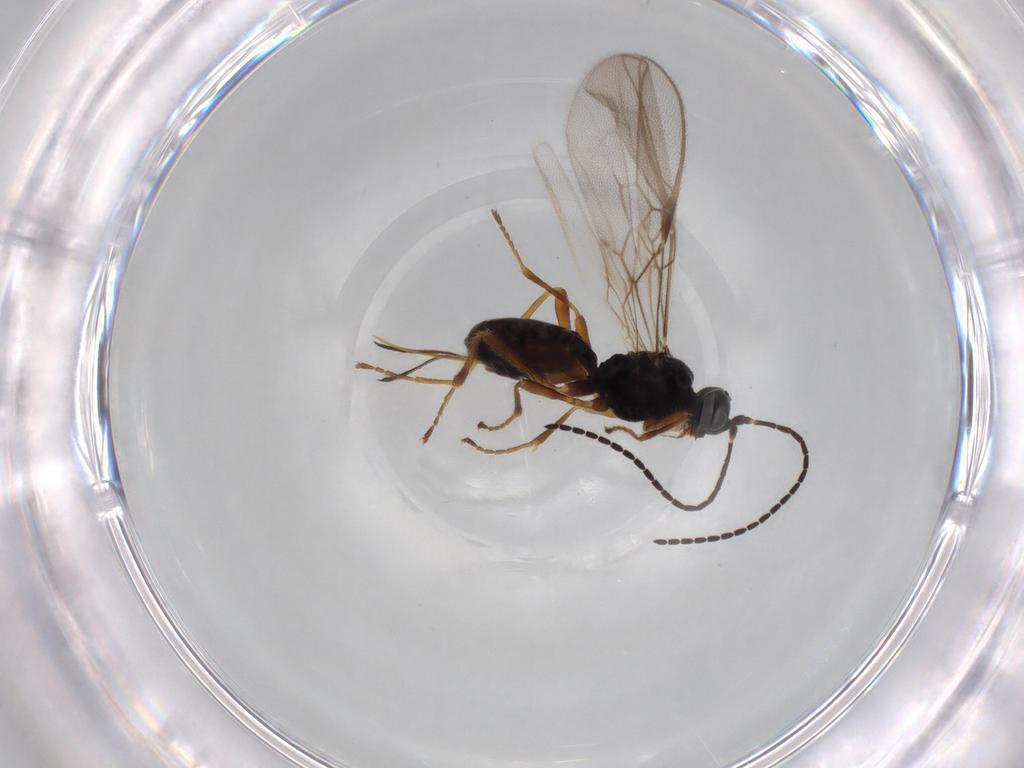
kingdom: Animalia
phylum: Arthropoda
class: Insecta
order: Hymenoptera
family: Braconidae
